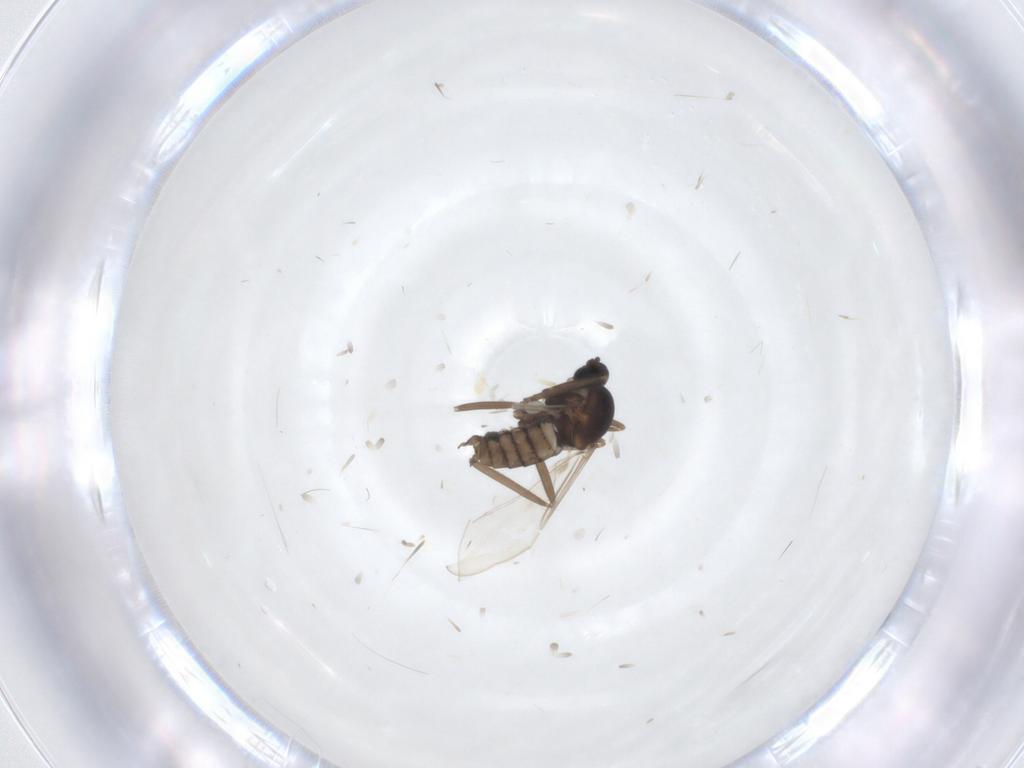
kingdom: Animalia
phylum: Arthropoda
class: Insecta
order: Diptera
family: Cecidomyiidae
